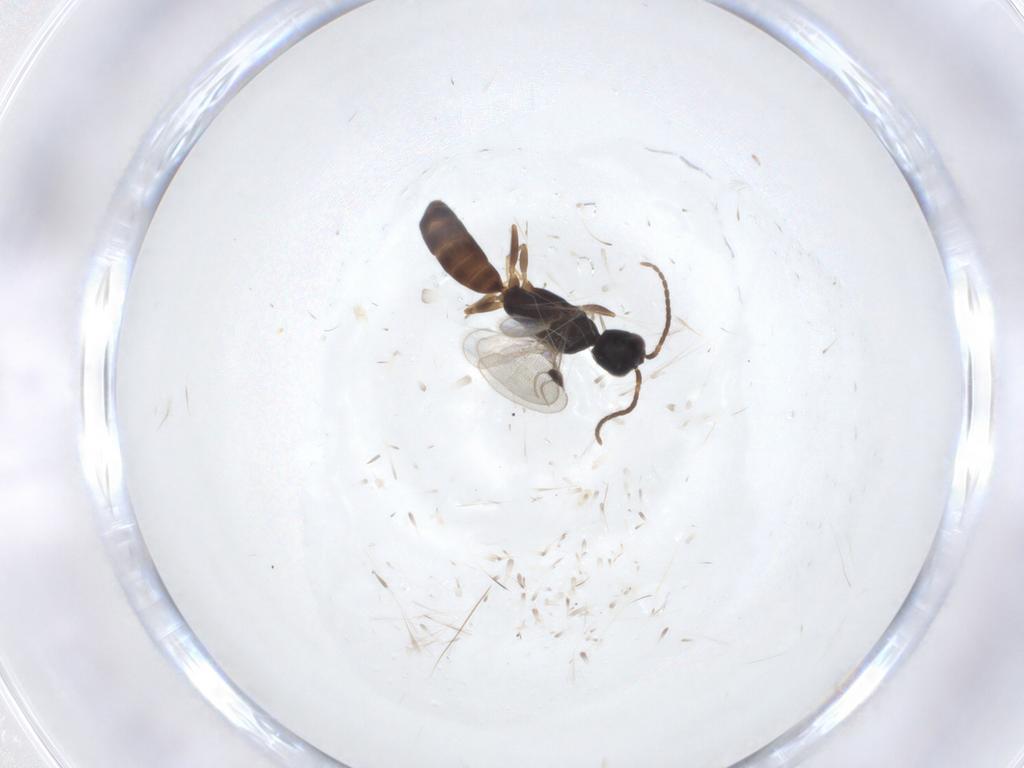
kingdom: Animalia
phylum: Arthropoda
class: Insecta
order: Hymenoptera
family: Bethylidae
